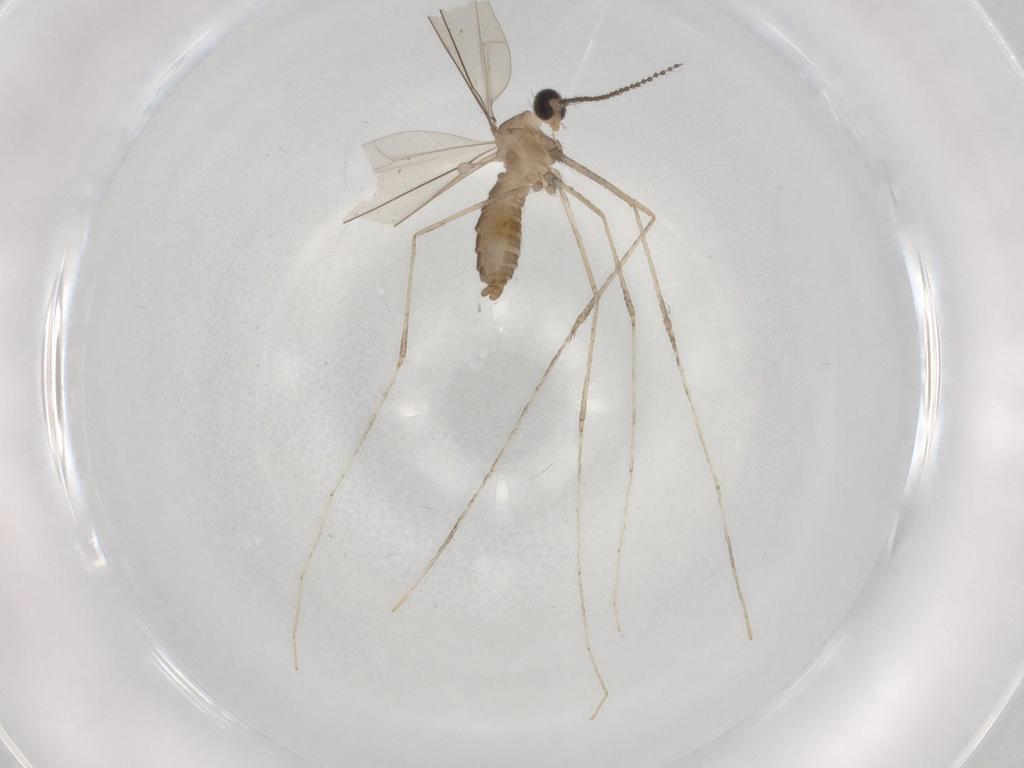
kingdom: Animalia
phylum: Arthropoda
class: Insecta
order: Diptera
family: Cecidomyiidae
